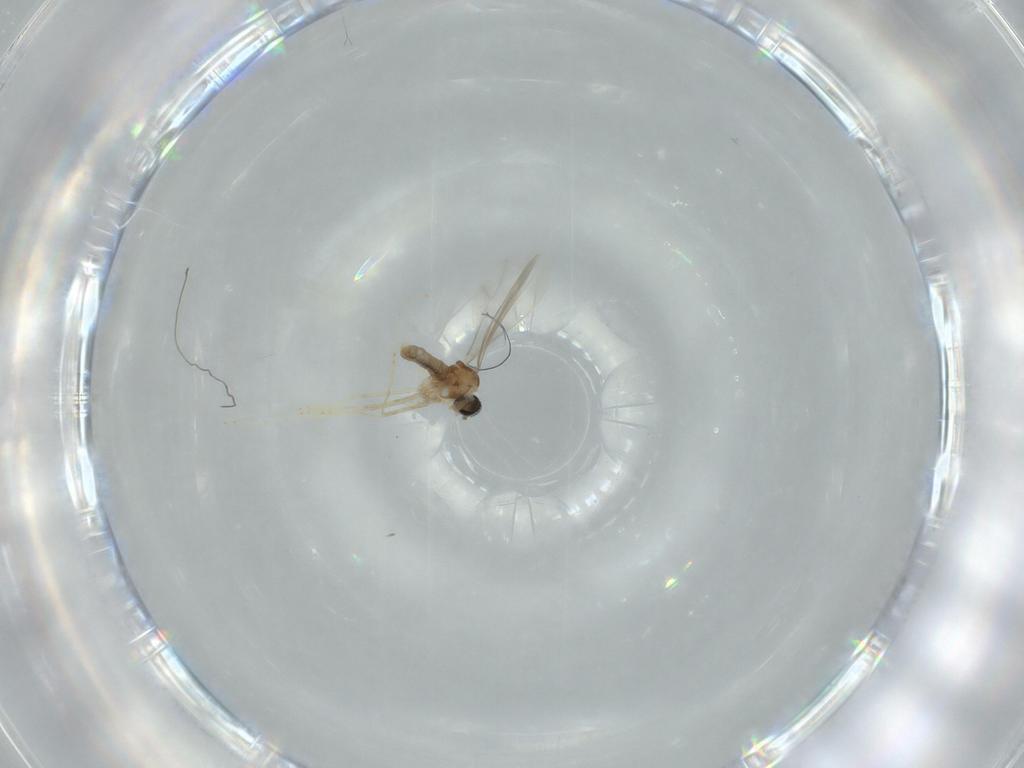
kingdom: Animalia
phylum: Arthropoda
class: Insecta
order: Diptera
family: Cecidomyiidae
